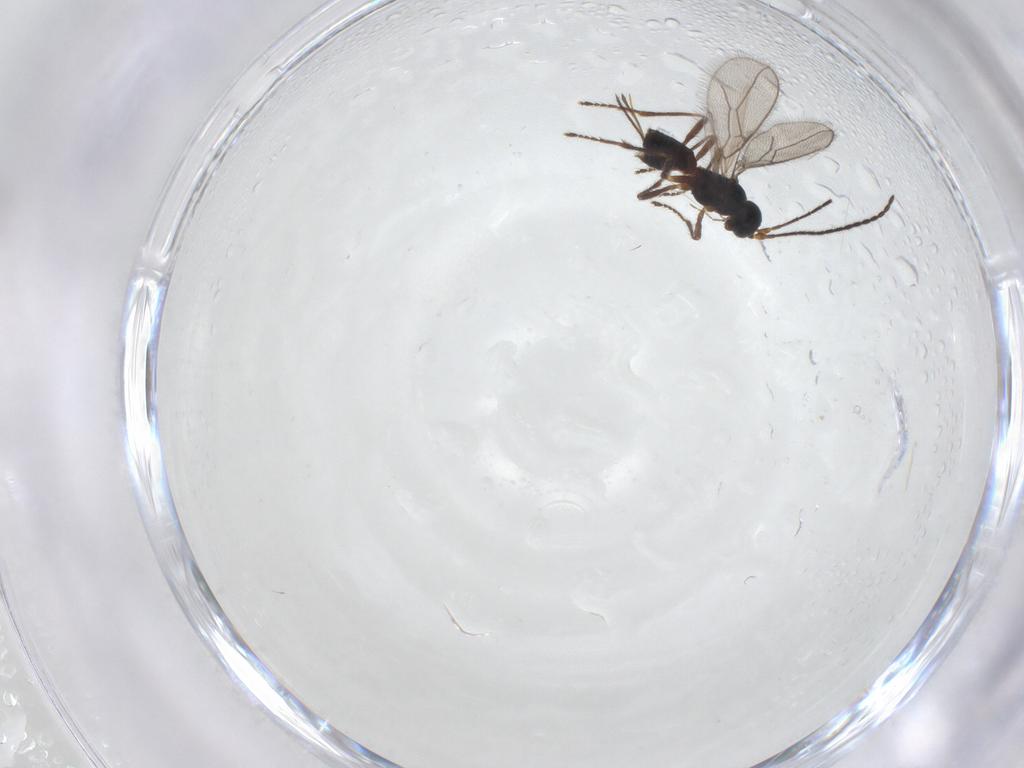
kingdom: Animalia
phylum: Arthropoda
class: Insecta
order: Hymenoptera
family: Braconidae
